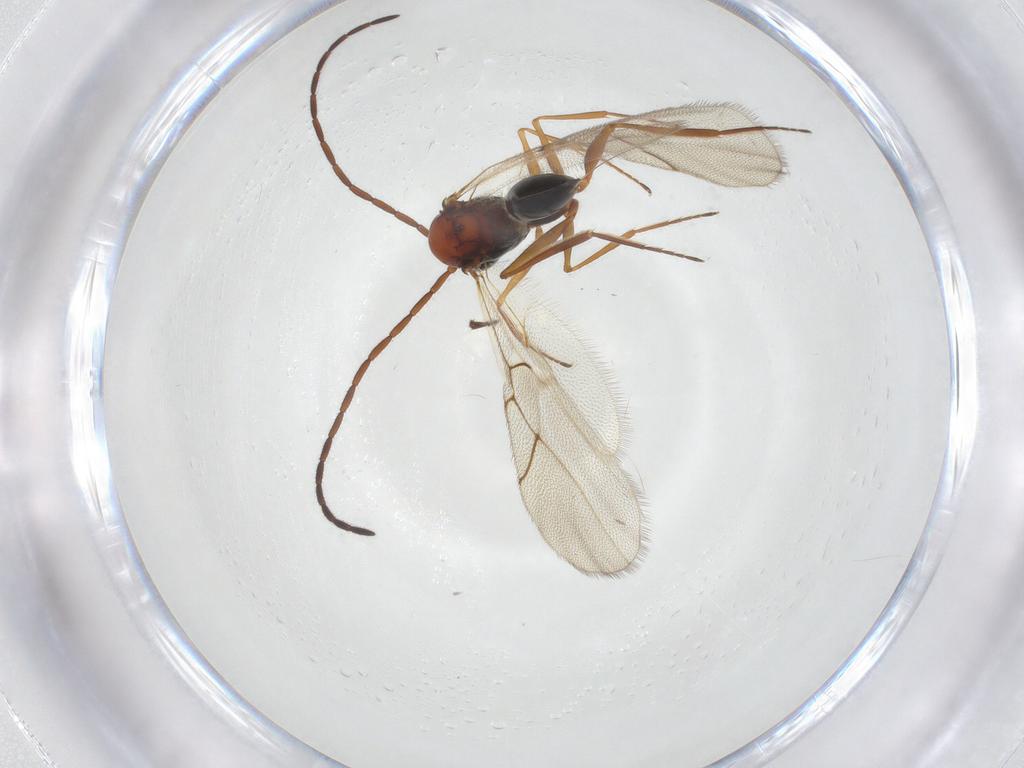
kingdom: Animalia
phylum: Arthropoda
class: Insecta
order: Hymenoptera
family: Figitidae
